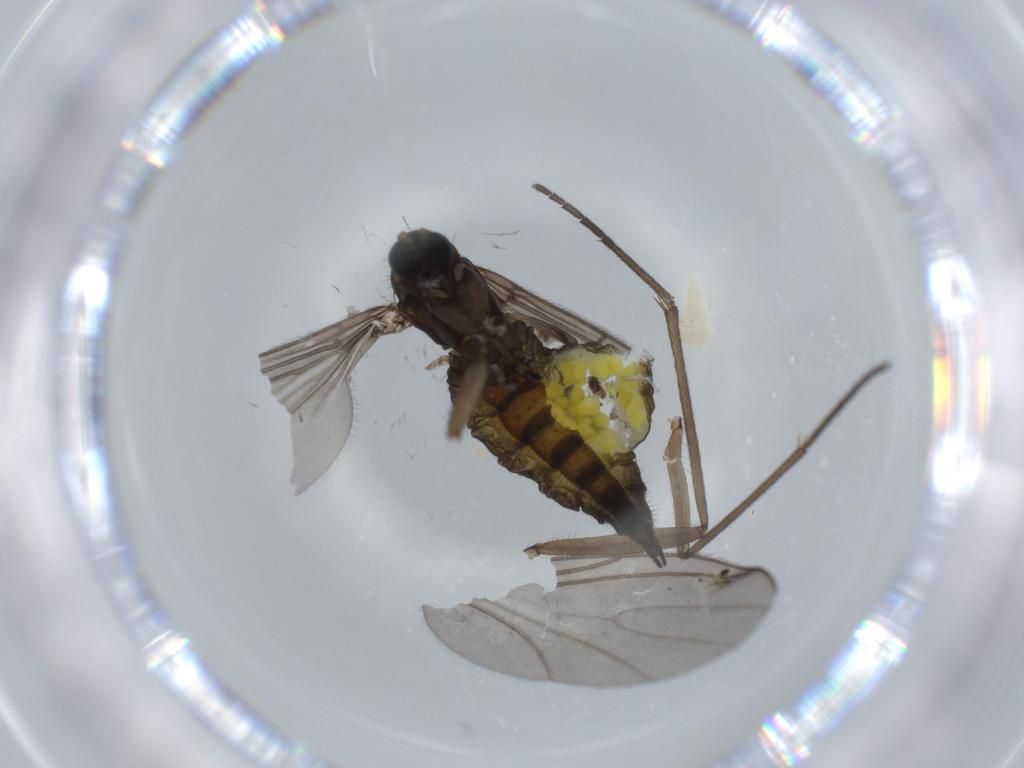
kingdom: Animalia
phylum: Arthropoda
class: Insecta
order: Diptera
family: Sciaridae
